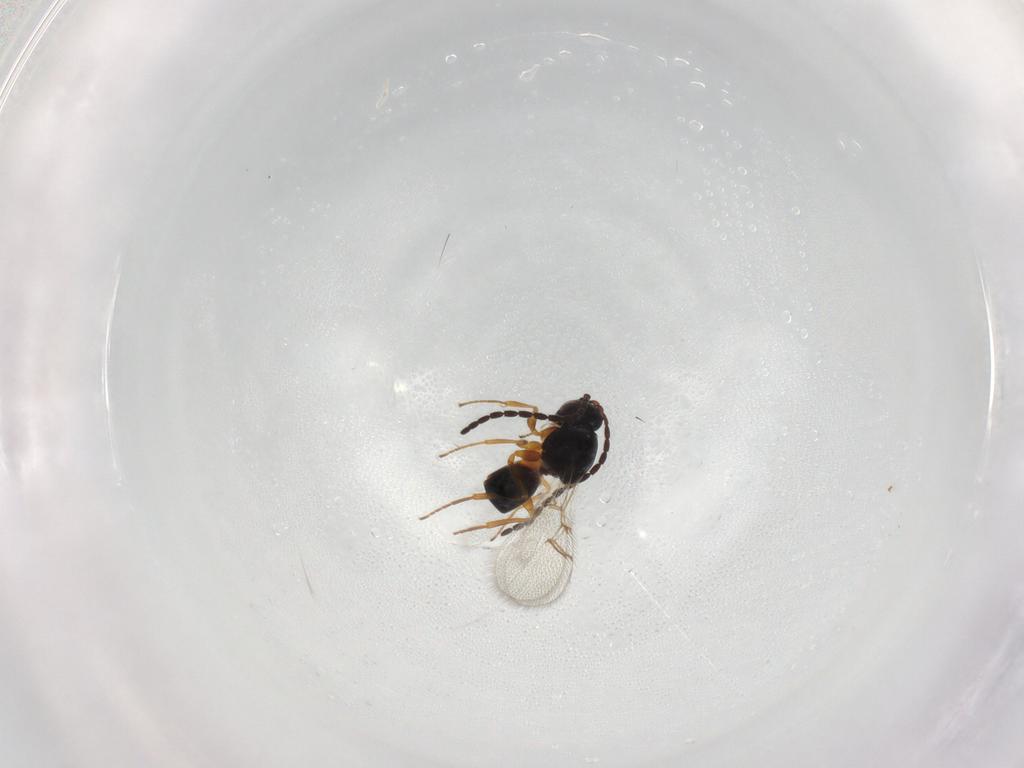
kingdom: Animalia
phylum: Arthropoda
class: Insecta
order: Hymenoptera
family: Figitidae
